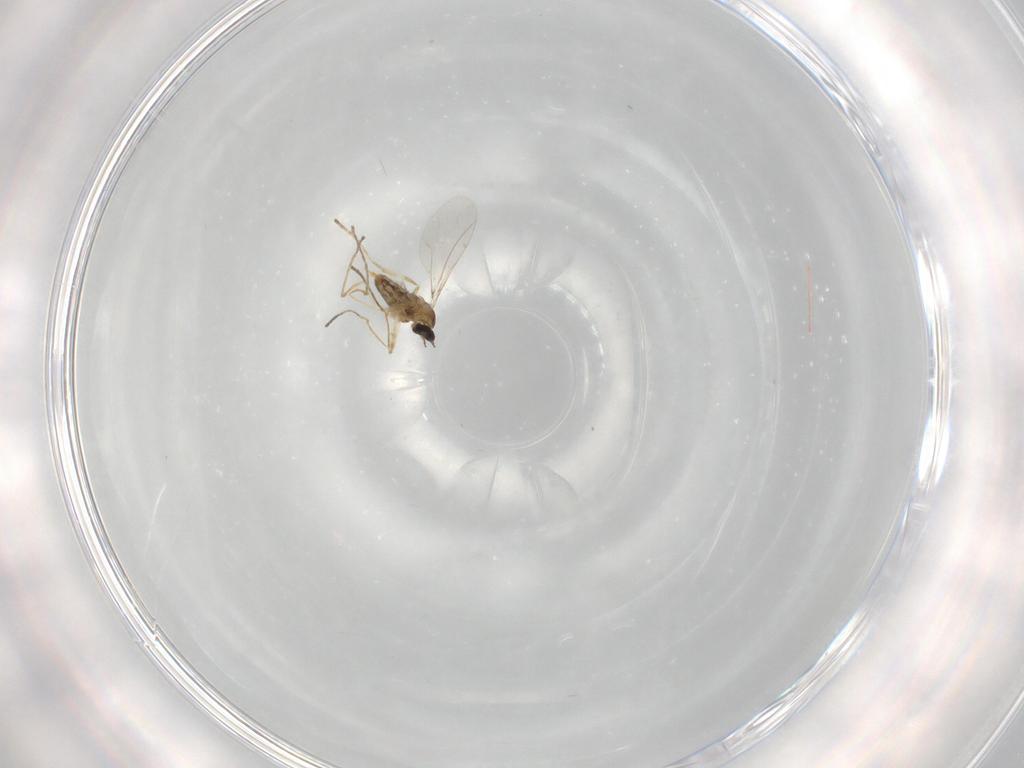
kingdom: Animalia
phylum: Arthropoda
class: Insecta
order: Diptera
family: Cecidomyiidae
